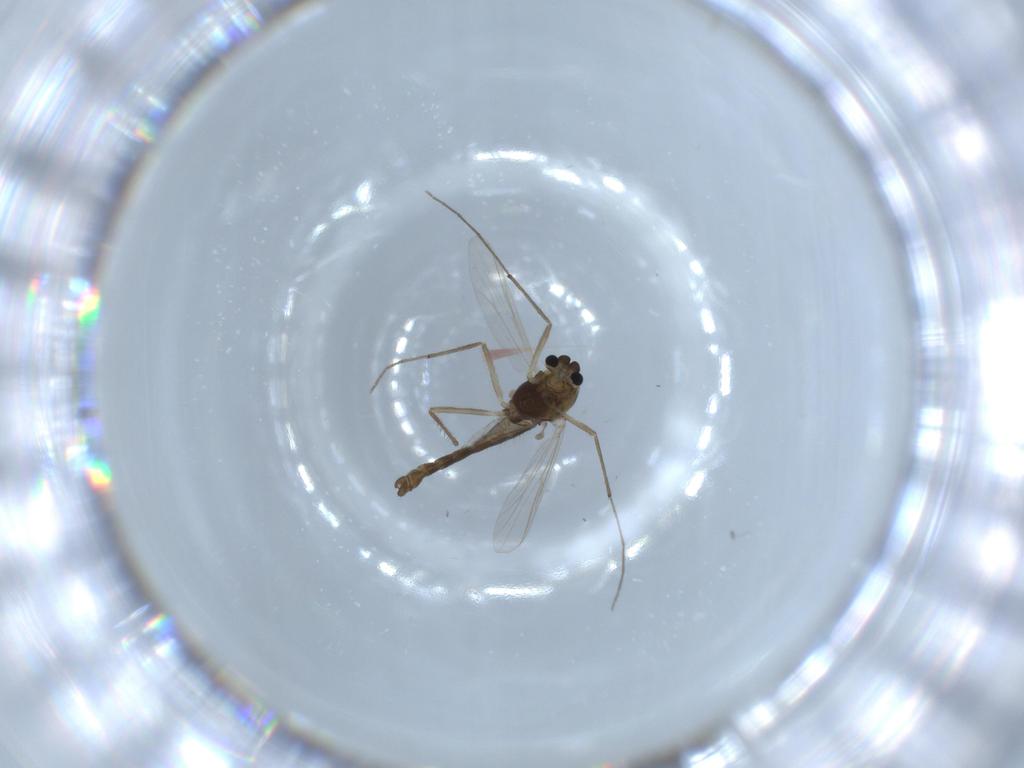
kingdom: Animalia
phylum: Arthropoda
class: Insecta
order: Diptera
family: Chironomidae
